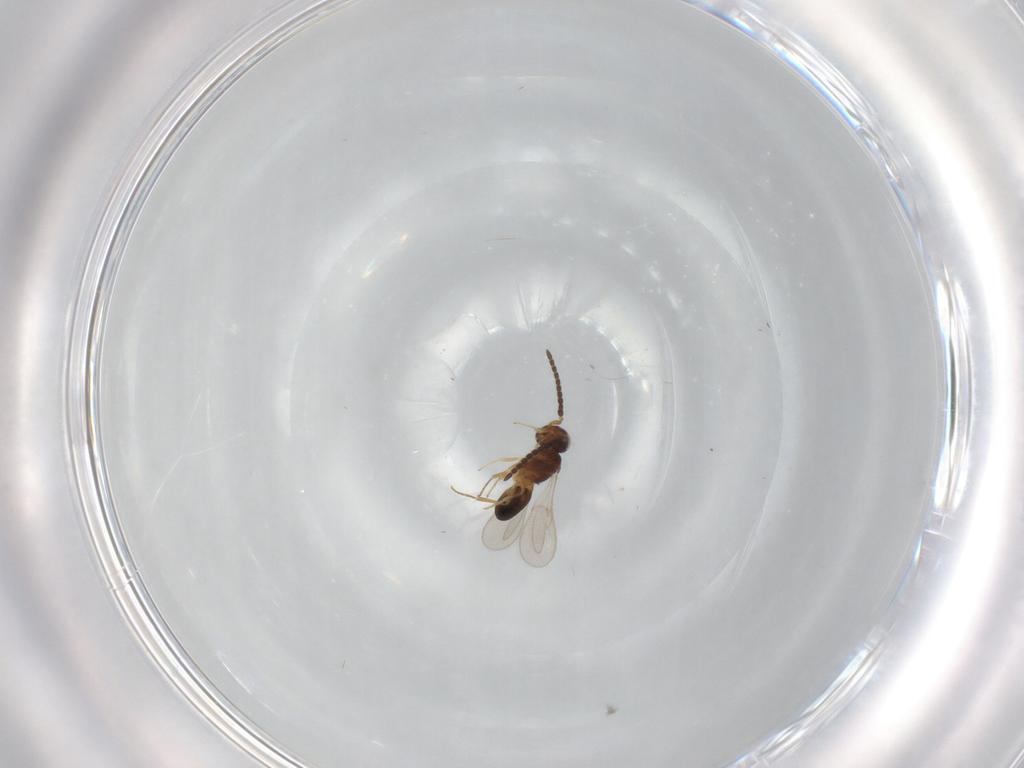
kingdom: Animalia
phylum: Arthropoda
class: Insecta
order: Hymenoptera
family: Scelionidae
